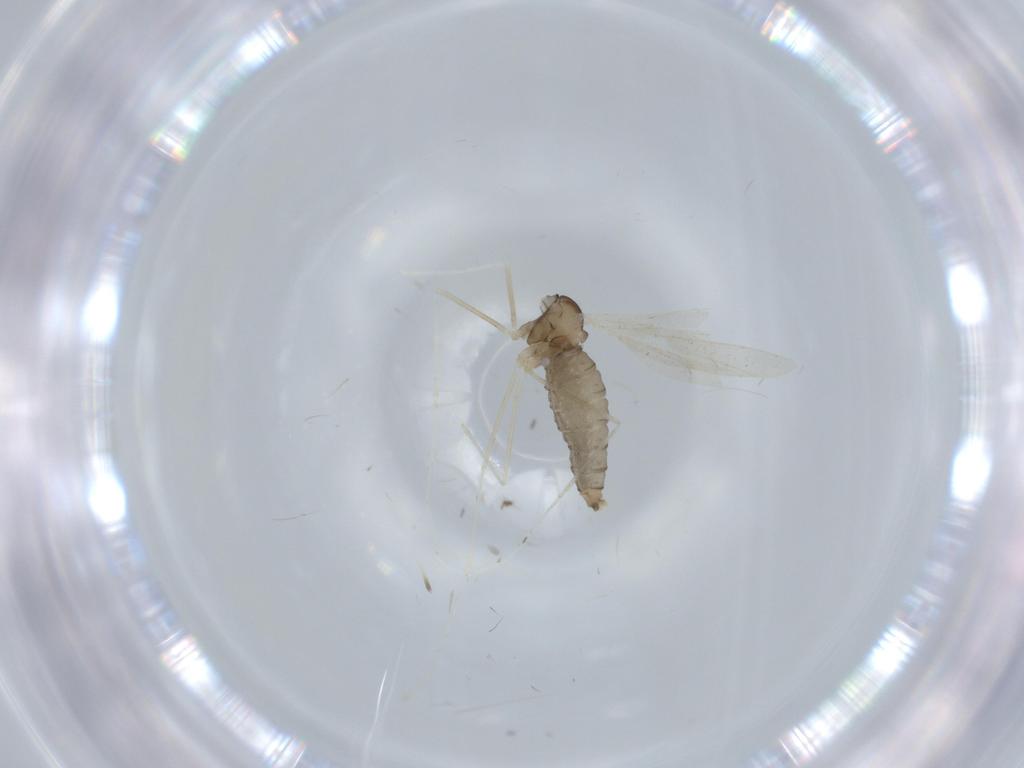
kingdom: Animalia
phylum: Arthropoda
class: Insecta
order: Diptera
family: Cecidomyiidae
